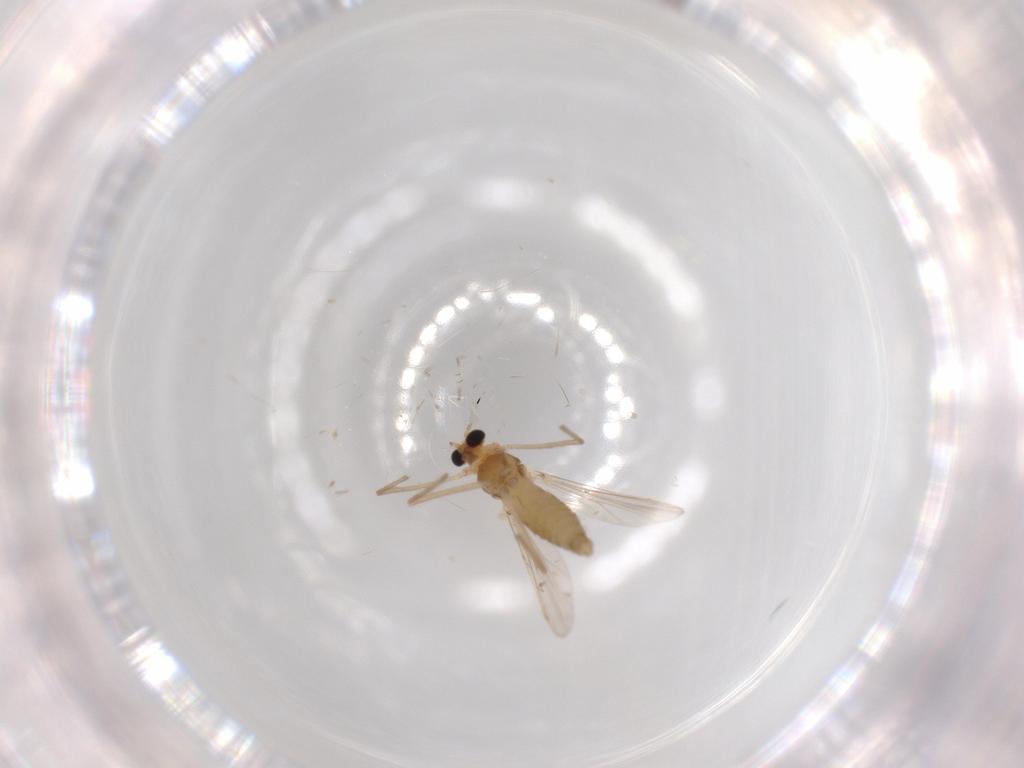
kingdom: Animalia
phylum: Arthropoda
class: Insecta
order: Diptera
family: Chironomidae
